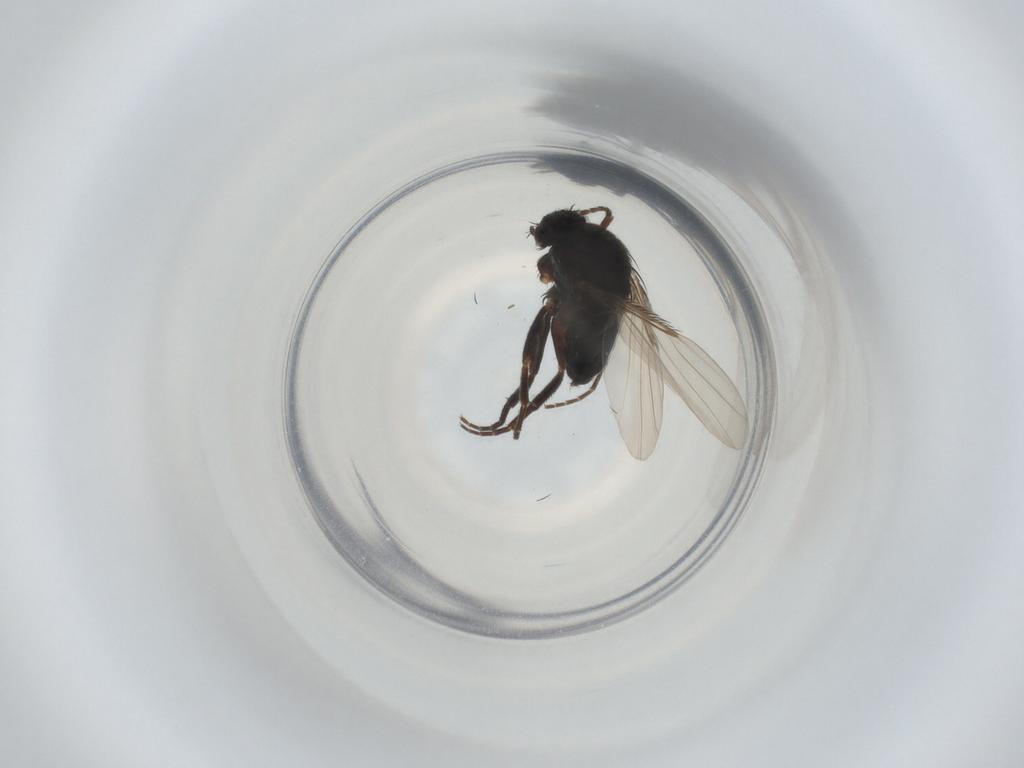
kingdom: Animalia
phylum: Arthropoda
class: Insecta
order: Diptera
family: Phoridae
